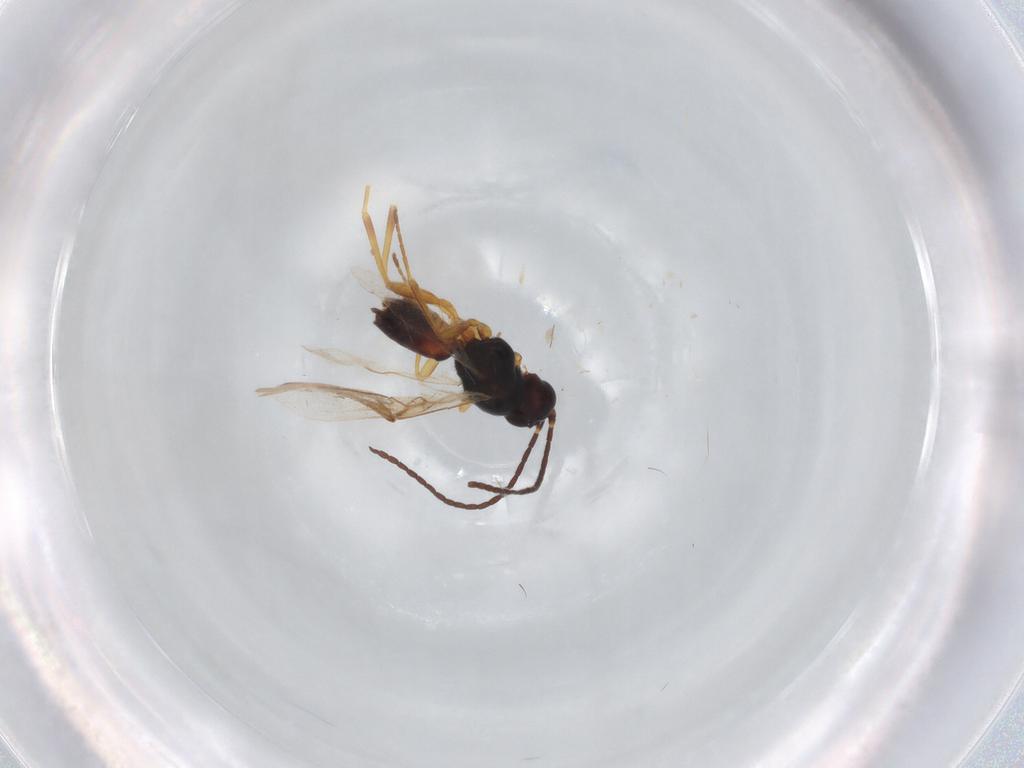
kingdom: Animalia
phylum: Arthropoda
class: Insecta
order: Hymenoptera
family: Braconidae
